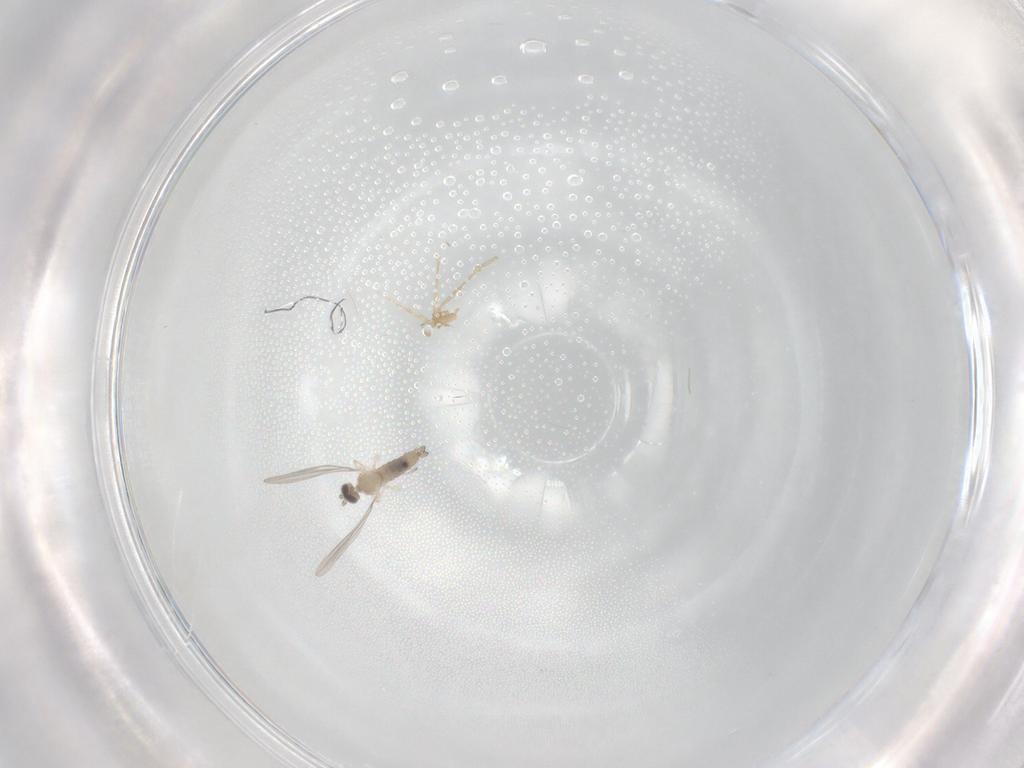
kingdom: Animalia
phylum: Arthropoda
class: Insecta
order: Diptera
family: Cecidomyiidae
